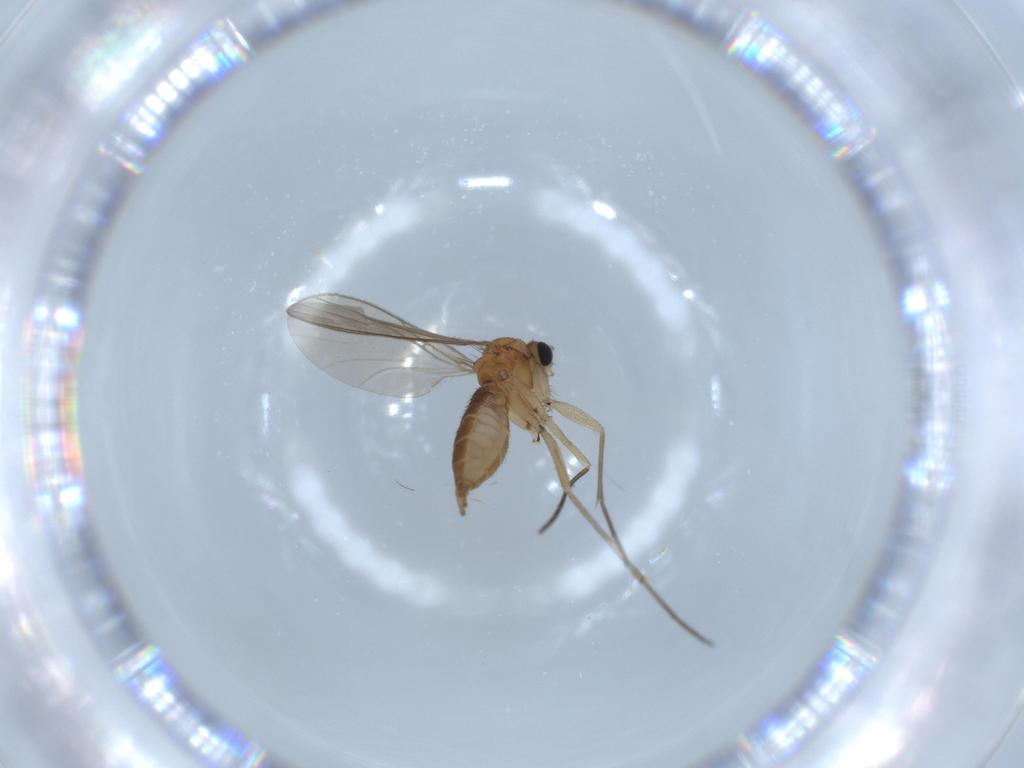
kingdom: Animalia
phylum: Arthropoda
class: Insecta
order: Diptera
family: Sciaridae
